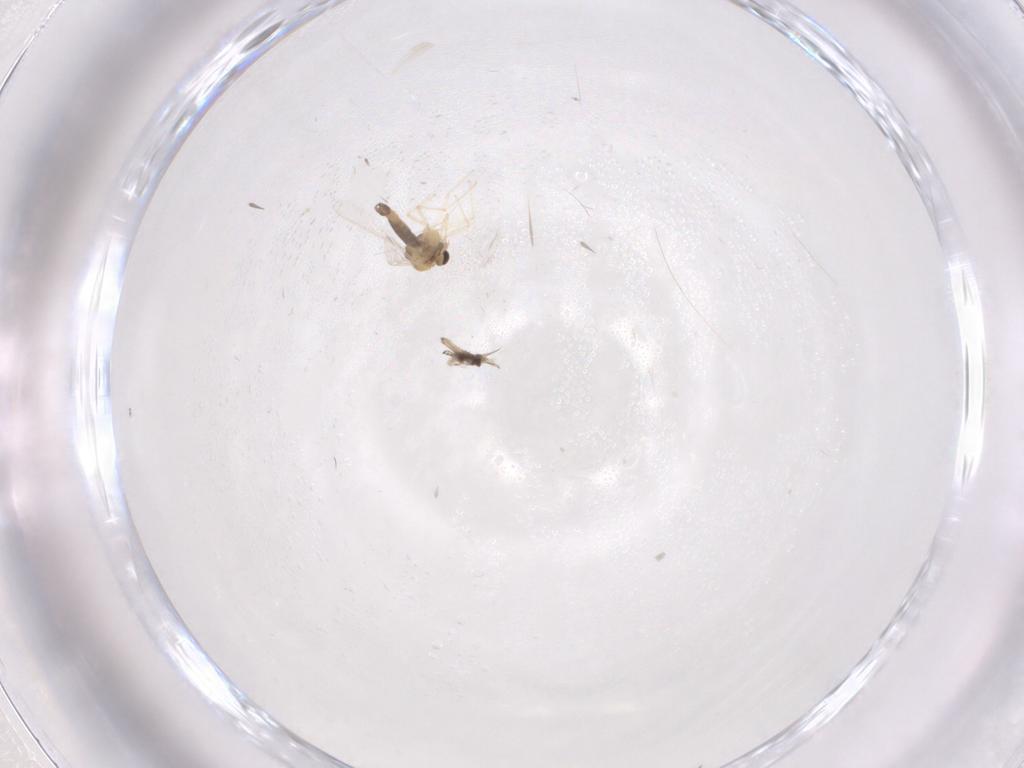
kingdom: Animalia
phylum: Arthropoda
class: Insecta
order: Diptera
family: Chironomidae
